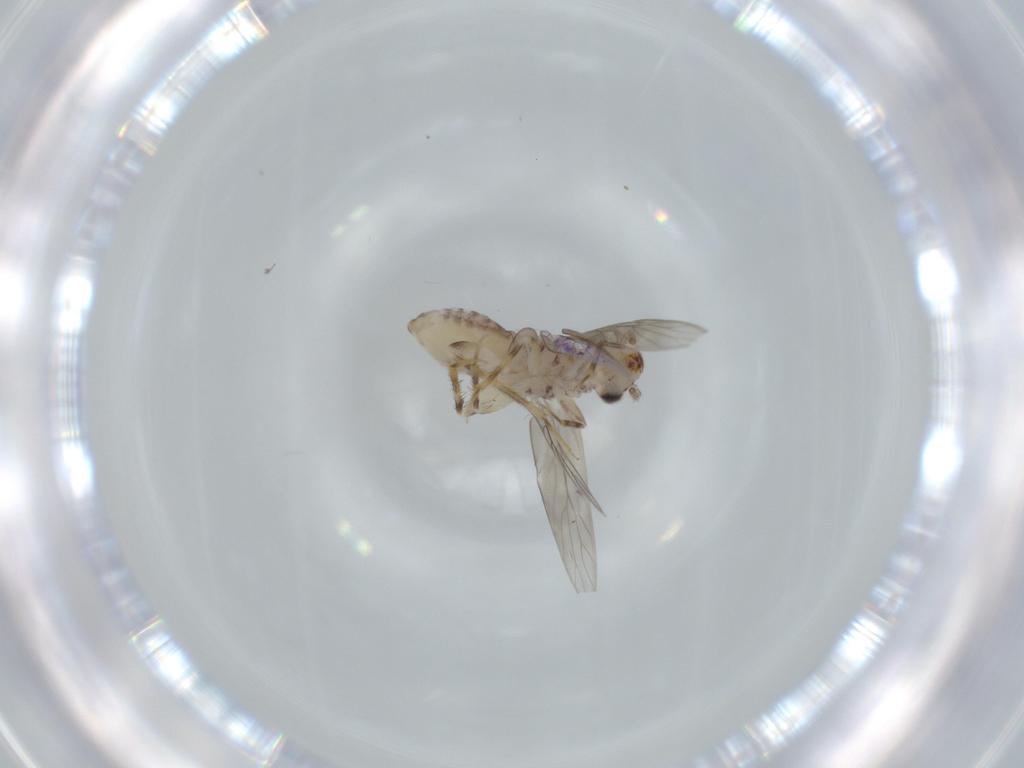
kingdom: Animalia
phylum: Arthropoda
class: Insecta
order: Psocodea
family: Lepidopsocidae
